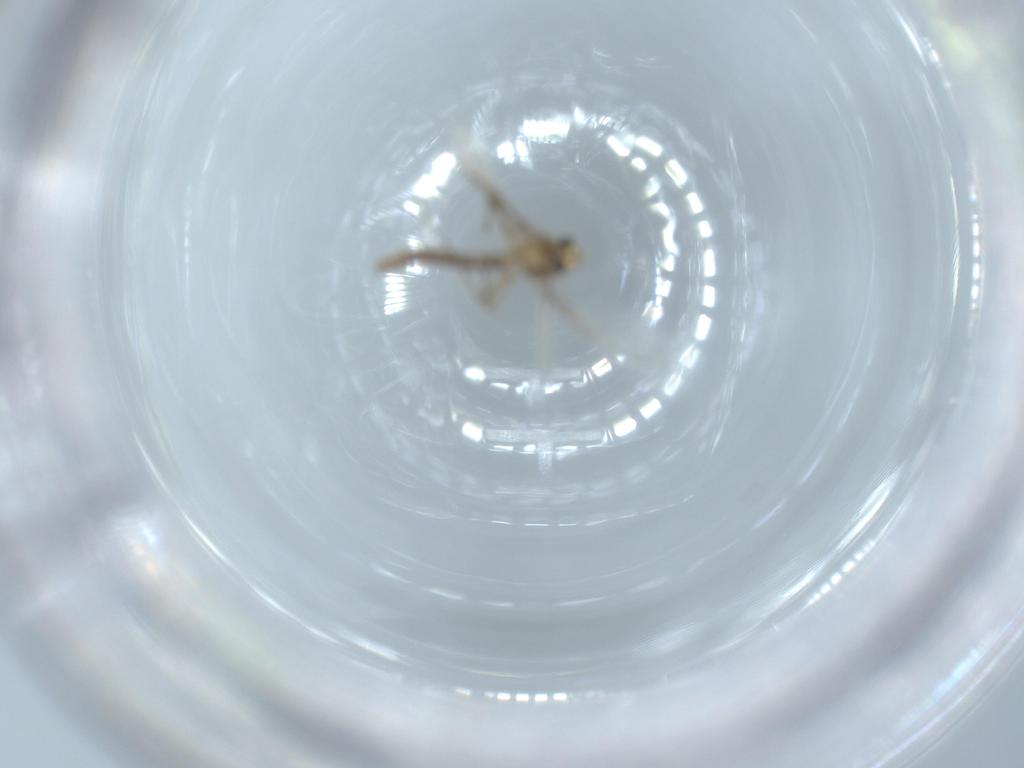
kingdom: Animalia
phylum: Arthropoda
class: Insecta
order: Diptera
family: Chironomidae
